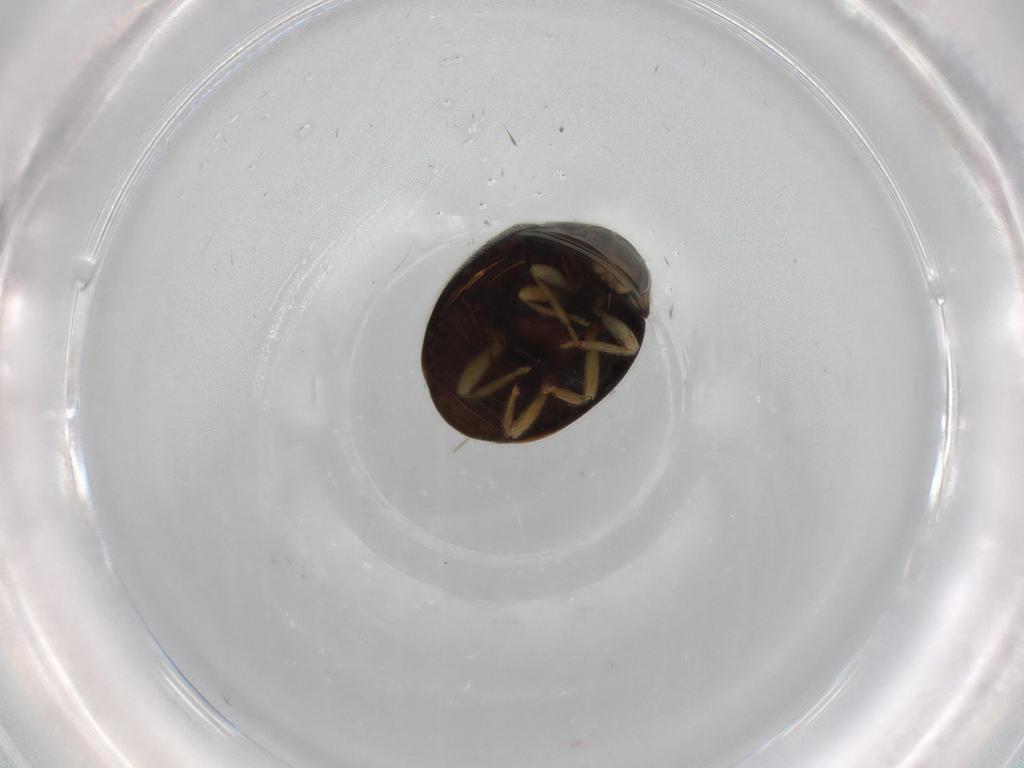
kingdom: Animalia
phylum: Arthropoda
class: Insecta
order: Coleoptera
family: Coccinellidae
